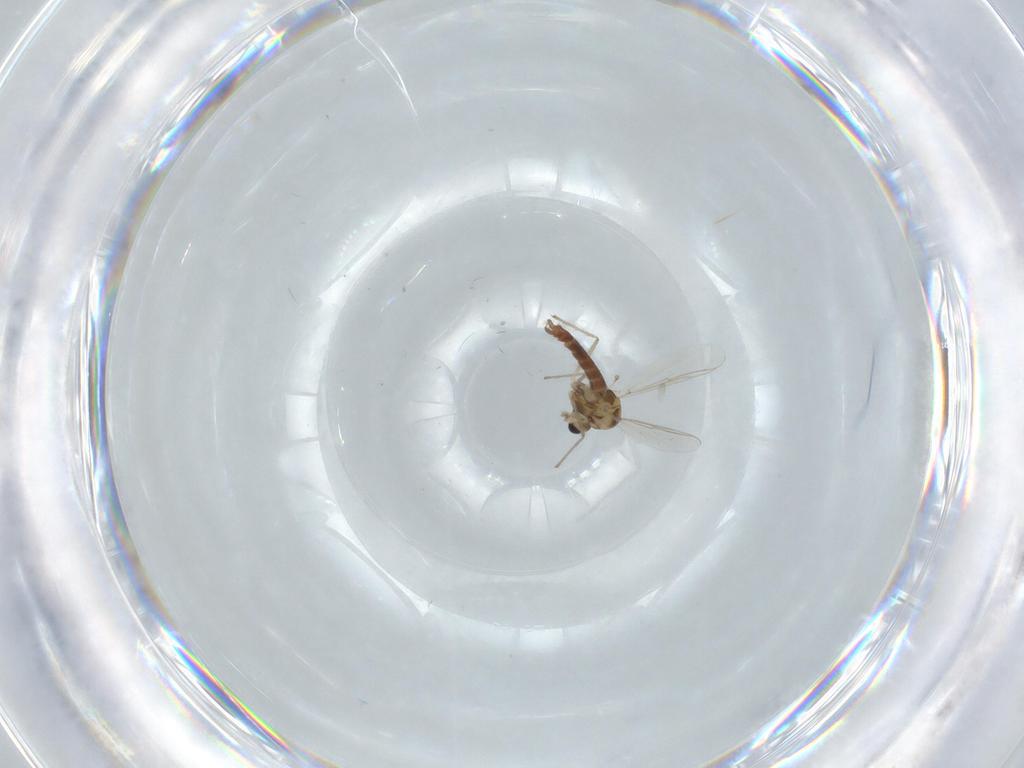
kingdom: Animalia
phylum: Arthropoda
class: Insecta
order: Diptera
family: Chironomidae
